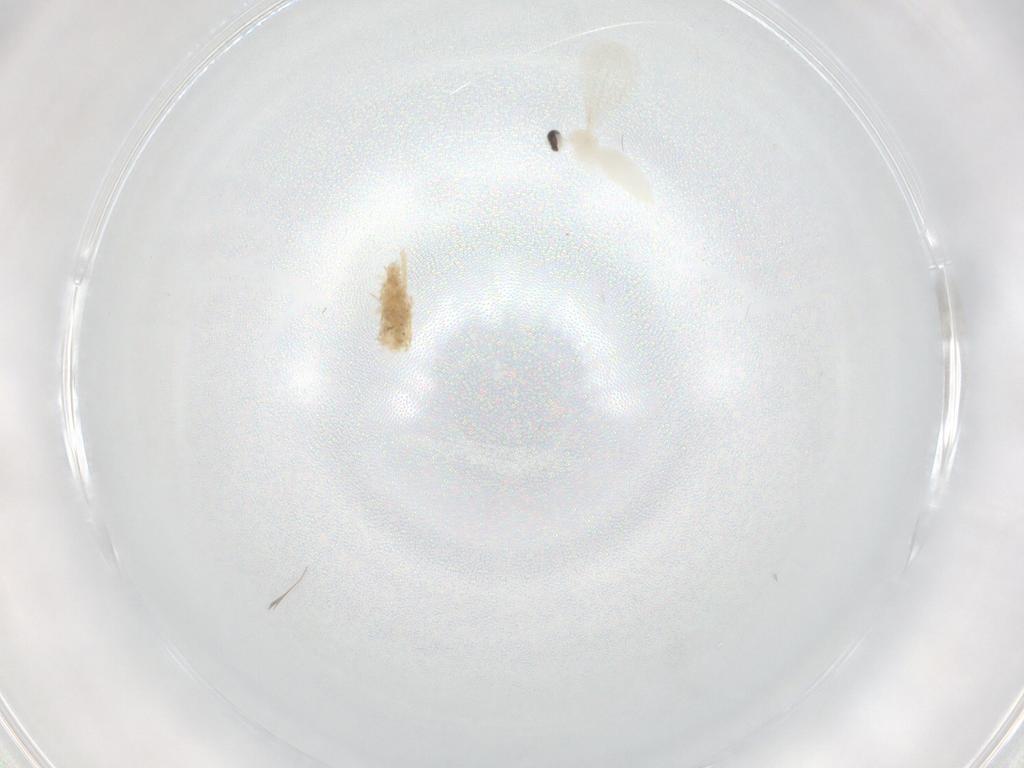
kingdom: Animalia
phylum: Arthropoda
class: Insecta
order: Diptera
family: Cecidomyiidae
